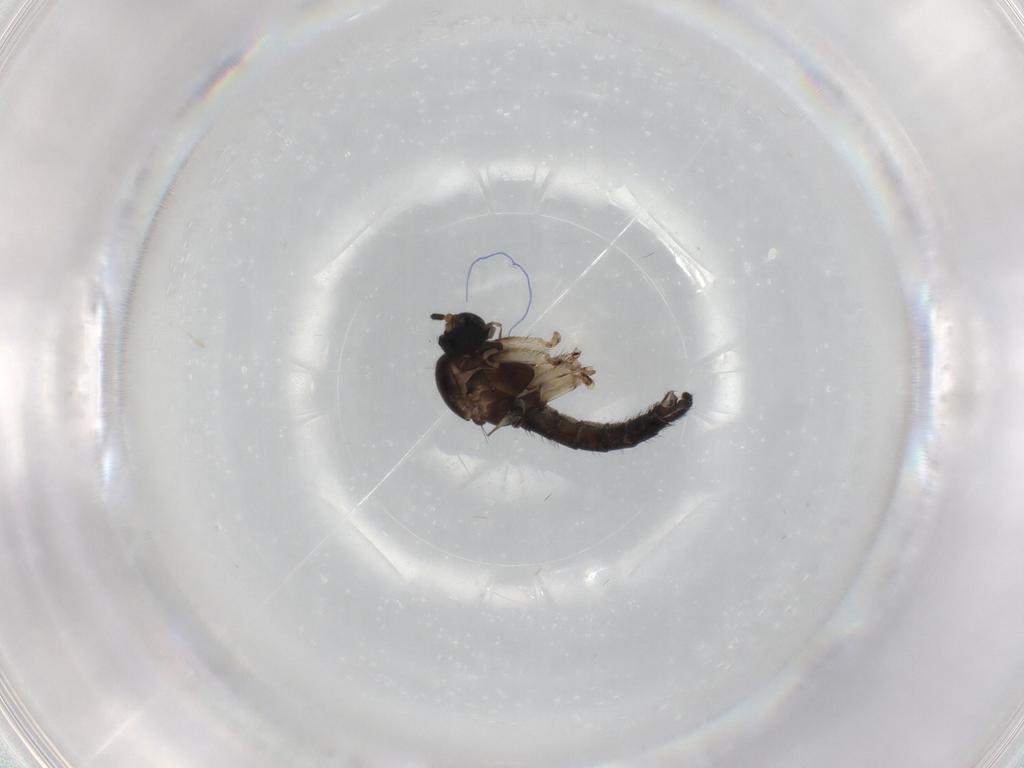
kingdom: Animalia
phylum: Arthropoda
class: Insecta
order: Diptera
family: Sciaridae
